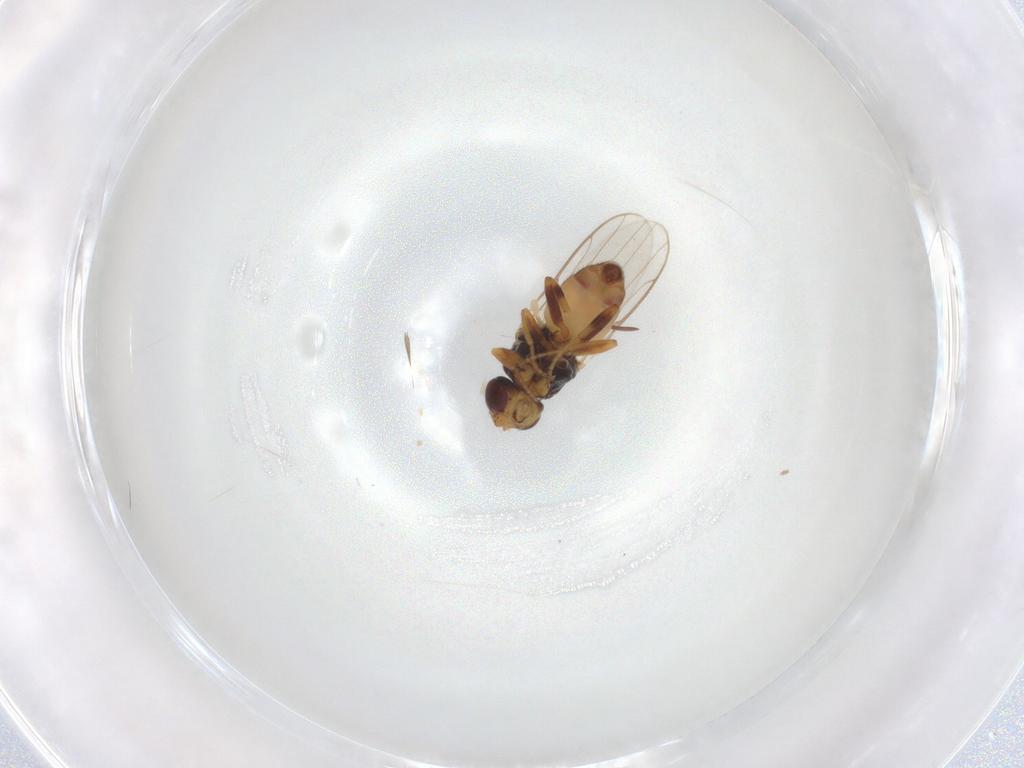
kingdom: Animalia
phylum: Arthropoda
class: Insecta
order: Diptera
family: Chloropidae
